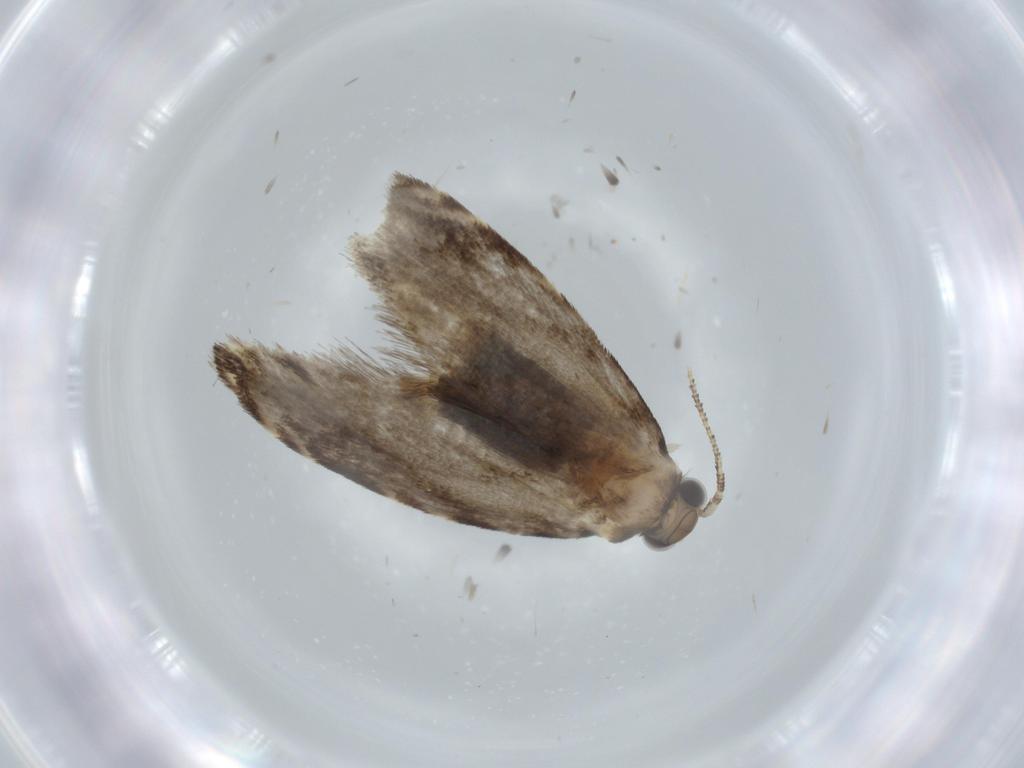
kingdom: Animalia
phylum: Arthropoda
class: Insecta
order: Lepidoptera
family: Tineidae
